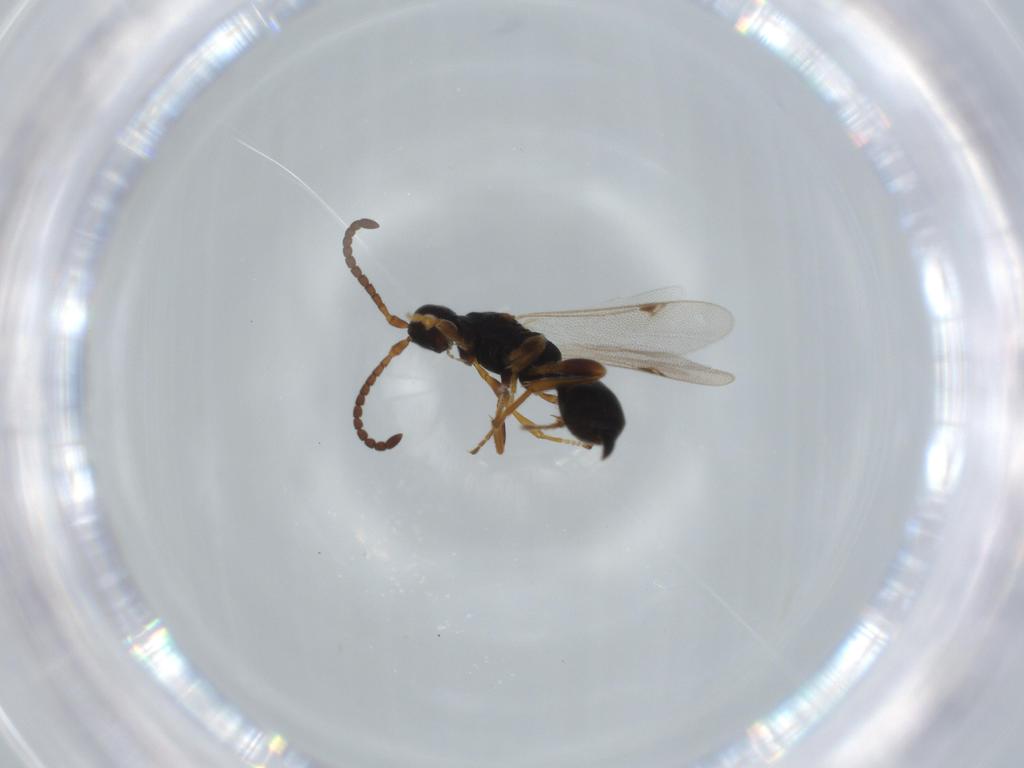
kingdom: Animalia
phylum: Arthropoda
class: Insecta
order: Hymenoptera
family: Proctotrupidae
